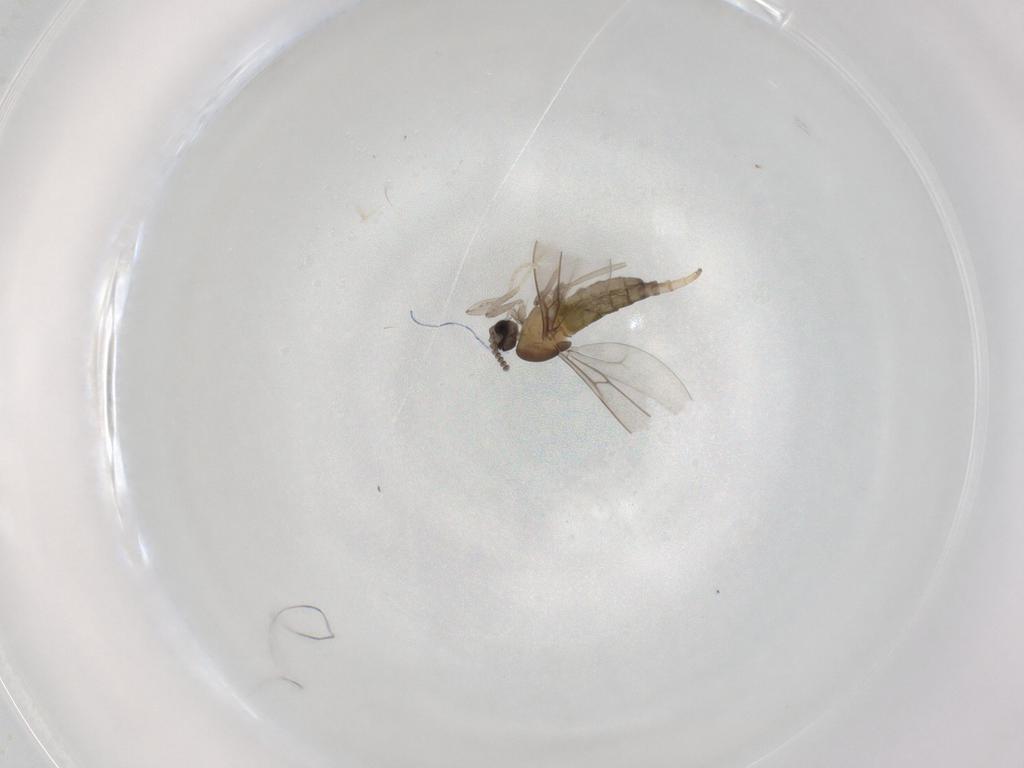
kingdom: Animalia
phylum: Arthropoda
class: Insecta
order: Diptera
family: Cecidomyiidae
